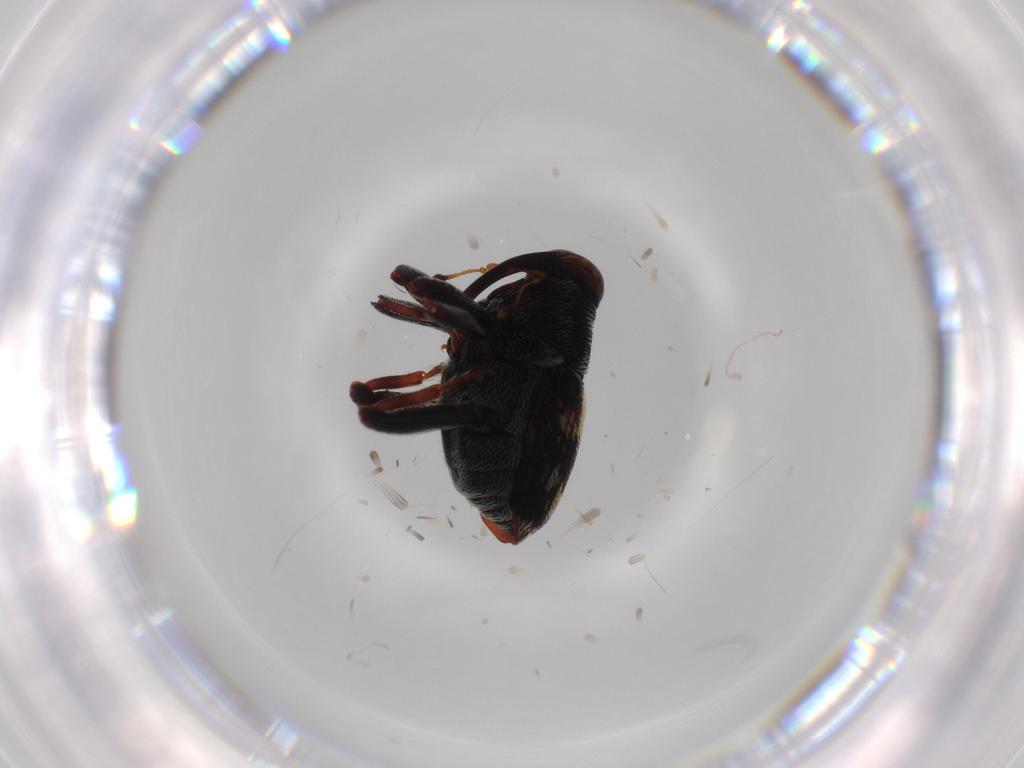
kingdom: Animalia
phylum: Arthropoda
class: Insecta
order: Coleoptera
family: Curculionidae
